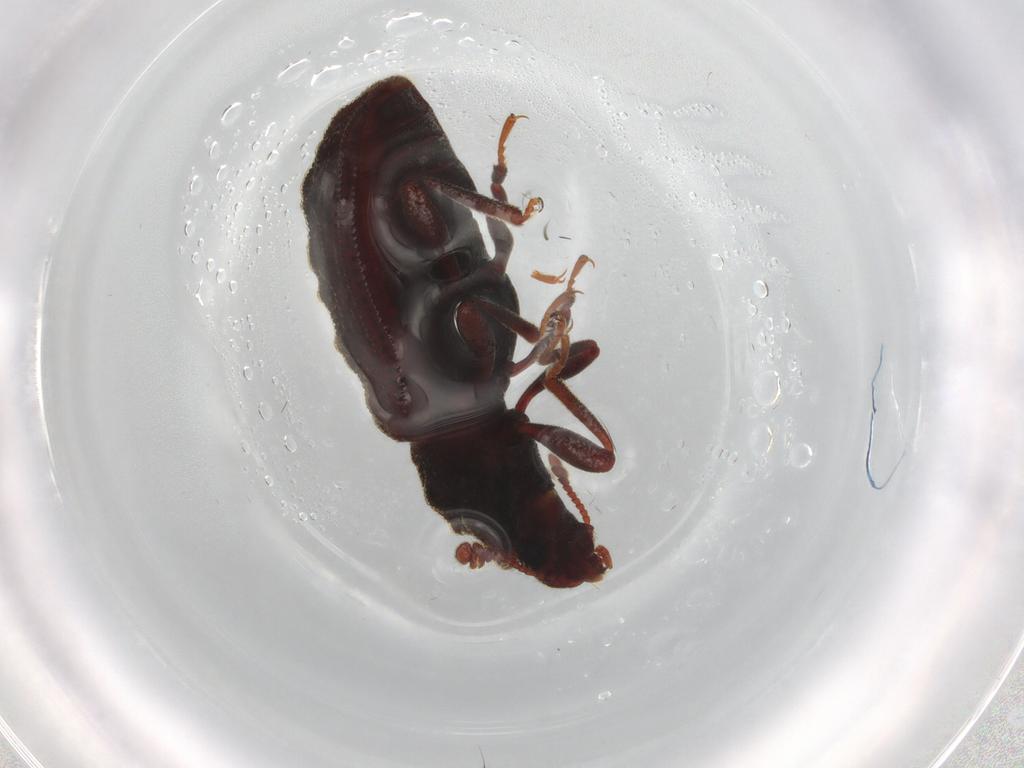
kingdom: Animalia
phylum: Arthropoda
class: Insecta
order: Coleoptera
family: Zopheridae
